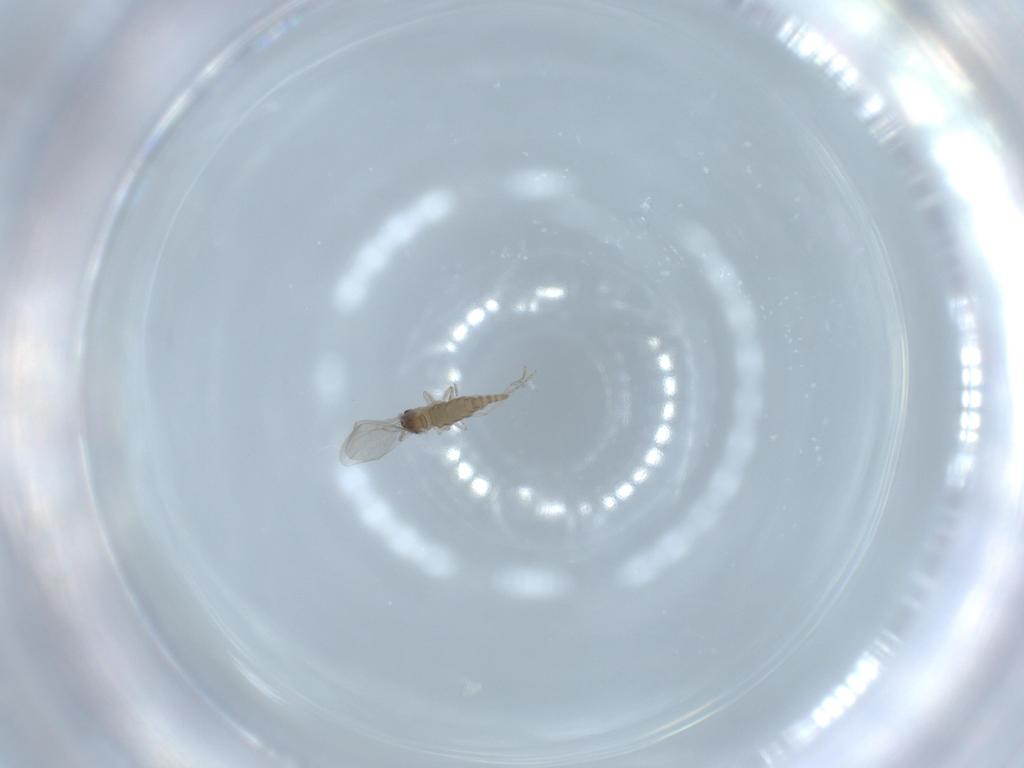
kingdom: Animalia
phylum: Arthropoda
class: Insecta
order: Diptera
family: Cecidomyiidae
